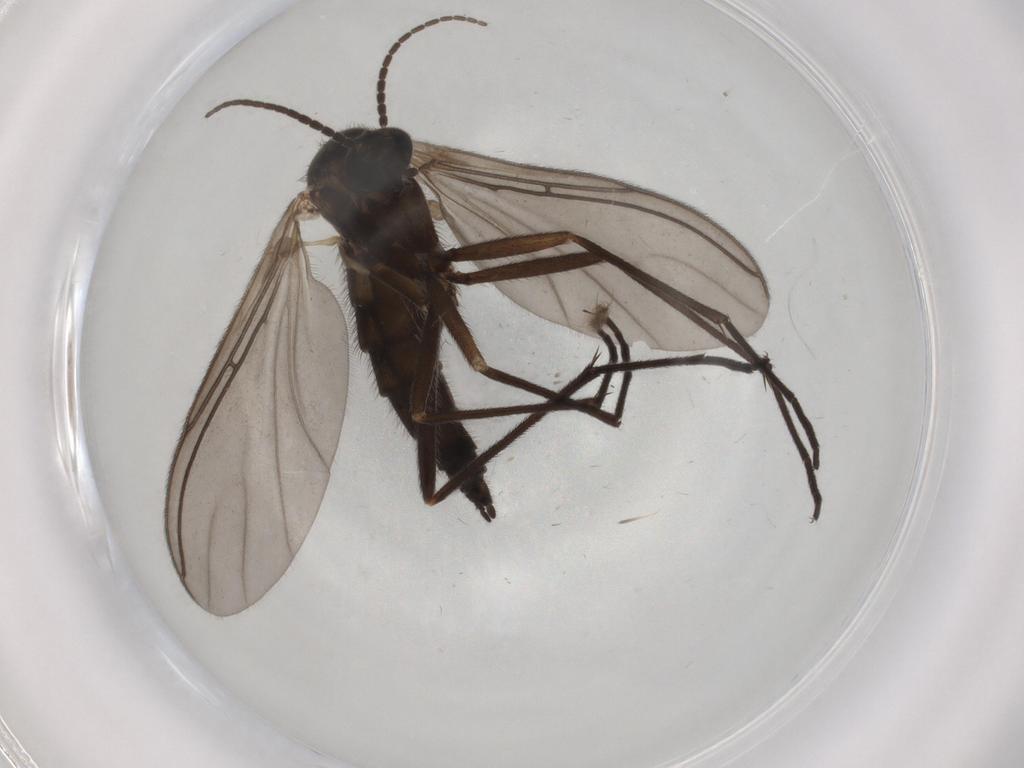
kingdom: Animalia
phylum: Arthropoda
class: Insecta
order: Diptera
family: Sciaridae
